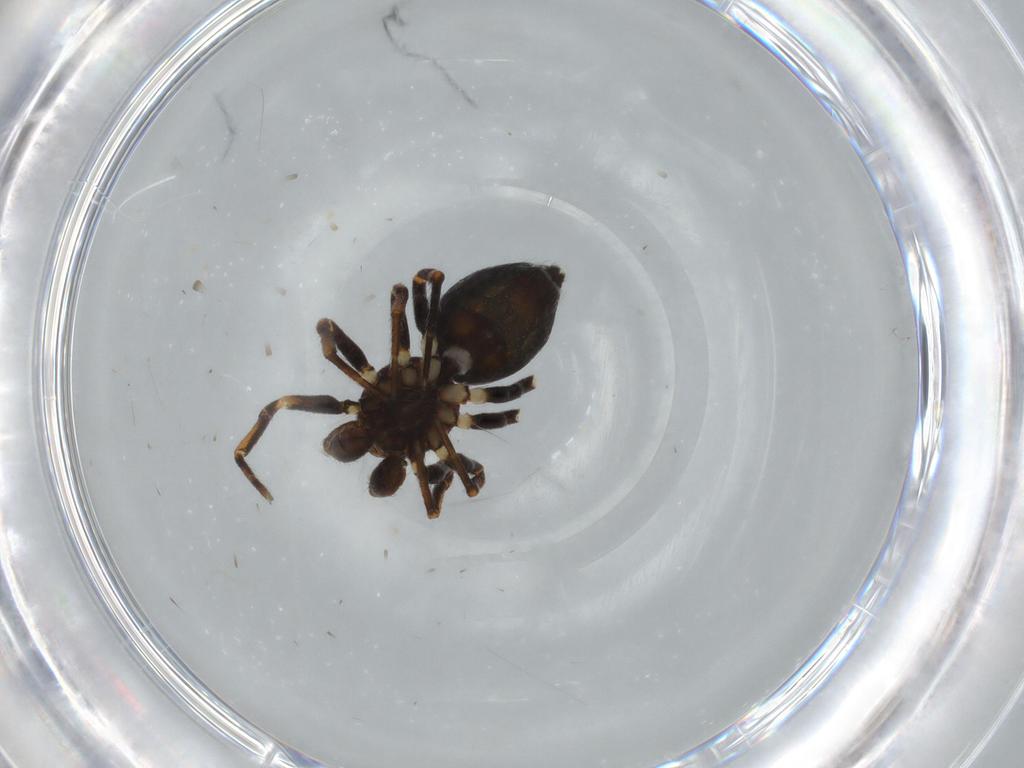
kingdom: Animalia
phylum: Arthropoda
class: Arachnida
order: Araneae
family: Theridiidae
